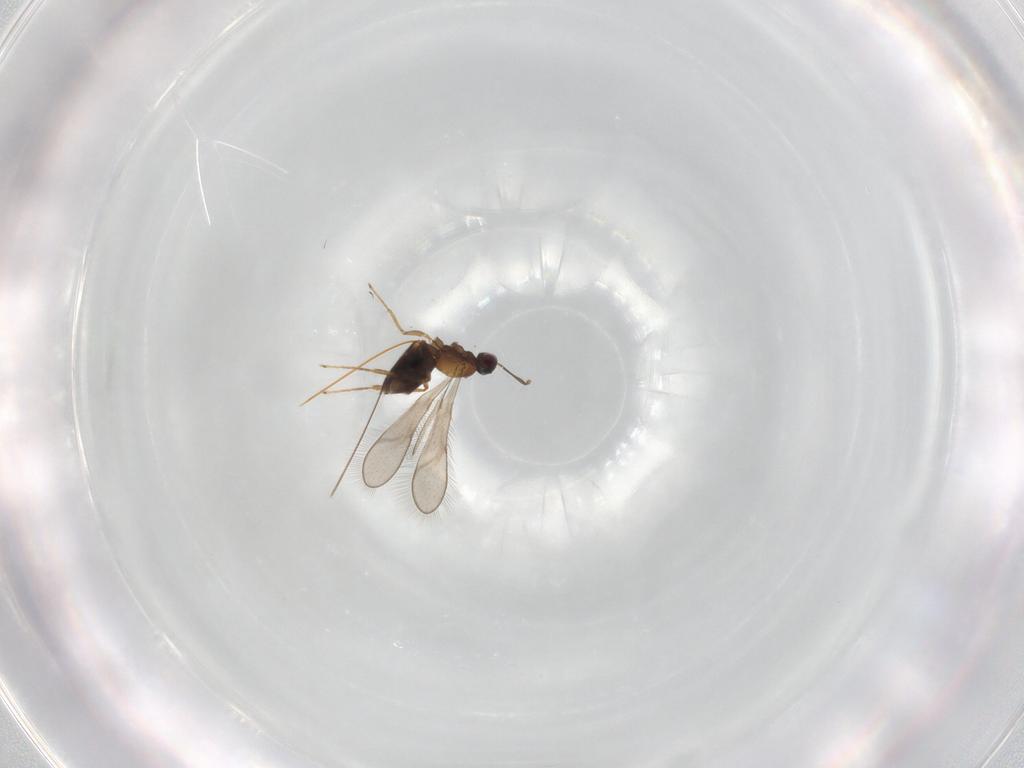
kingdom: Animalia
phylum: Arthropoda
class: Insecta
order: Hymenoptera
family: Mymaridae
